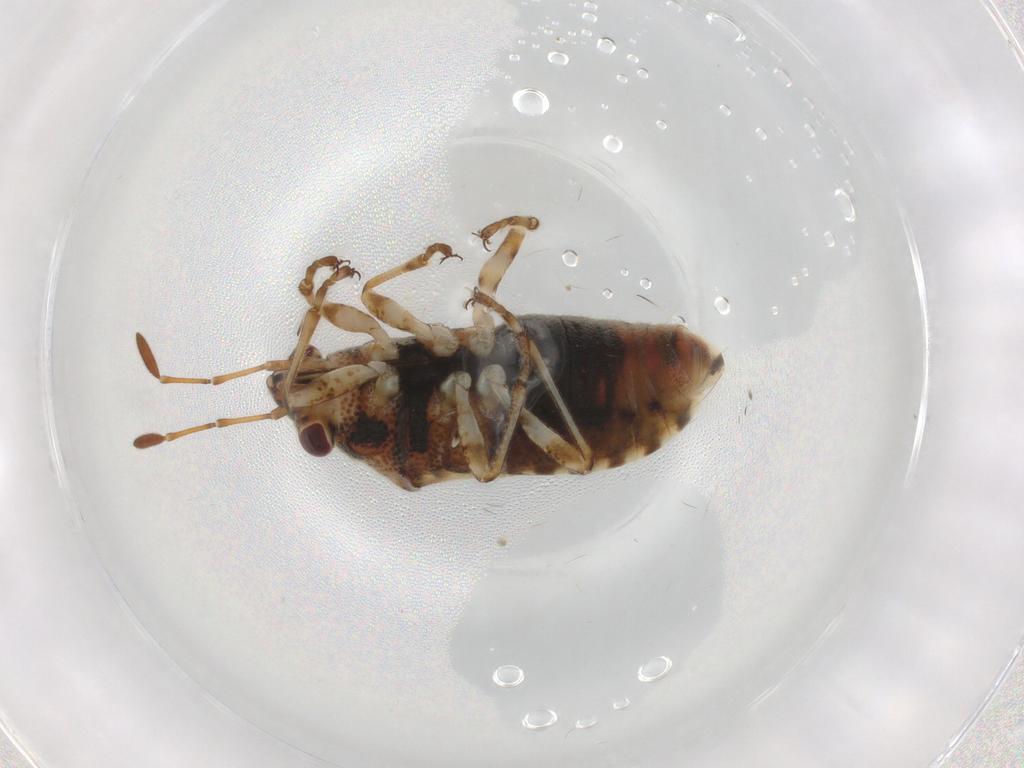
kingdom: Animalia
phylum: Arthropoda
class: Insecta
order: Hemiptera
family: Lygaeidae
